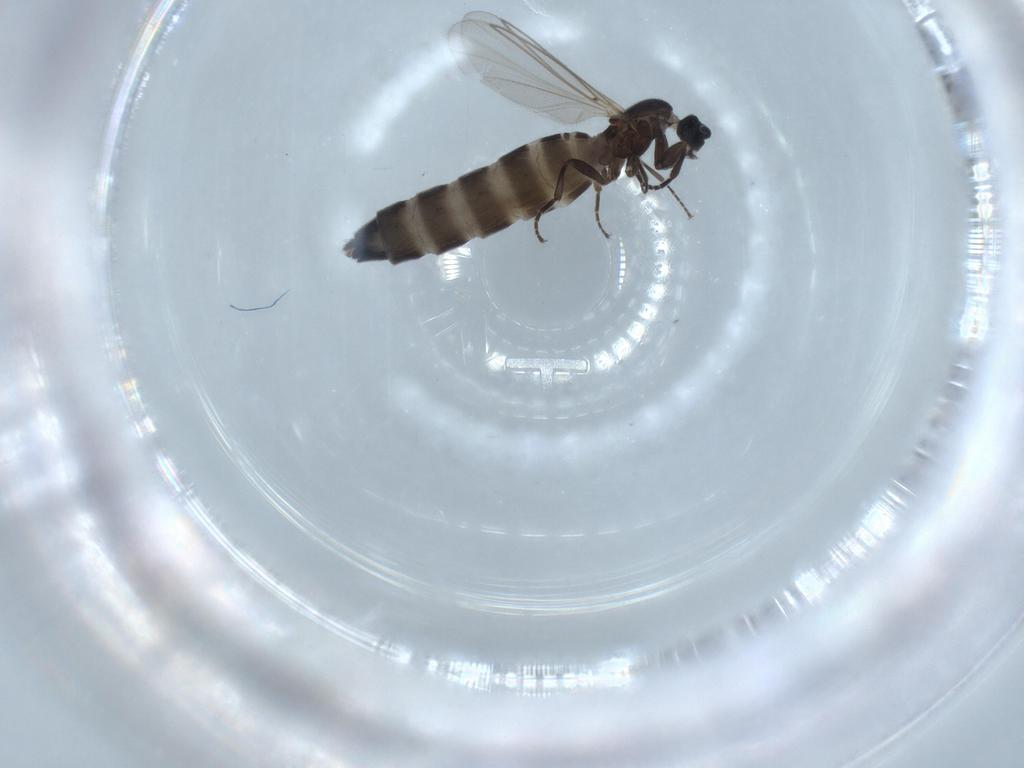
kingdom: Animalia
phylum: Arthropoda
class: Insecta
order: Diptera
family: Scatopsidae
